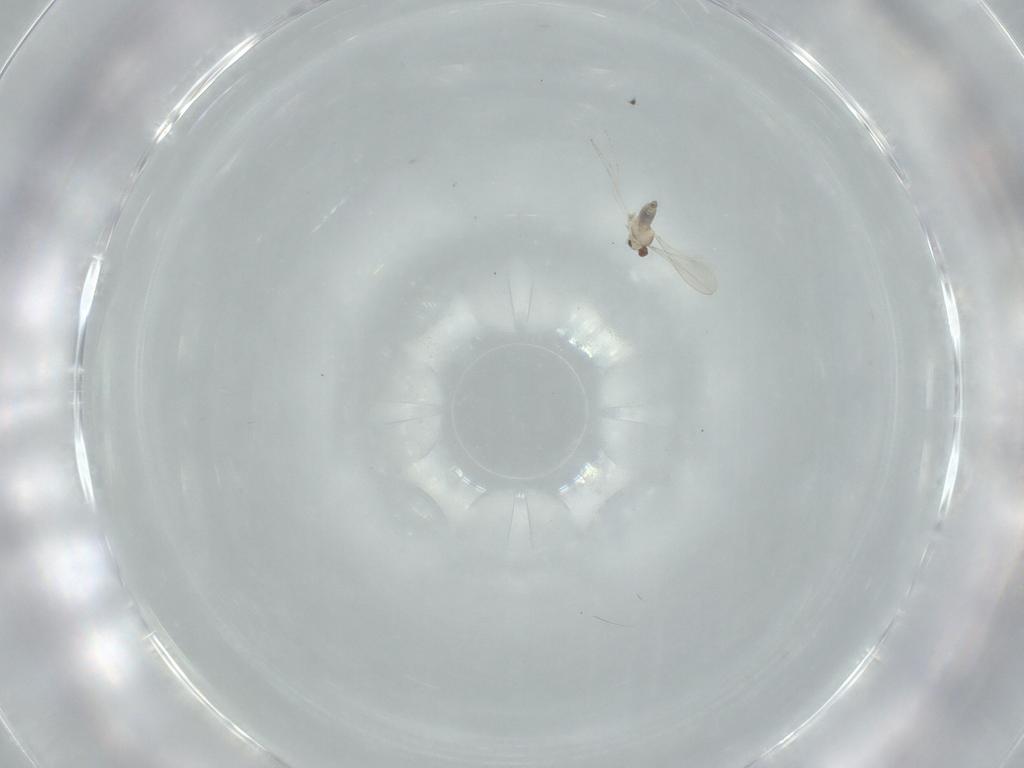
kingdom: Animalia
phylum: Arthropoda
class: Insecta
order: Diptera
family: Cecidomyiidae
